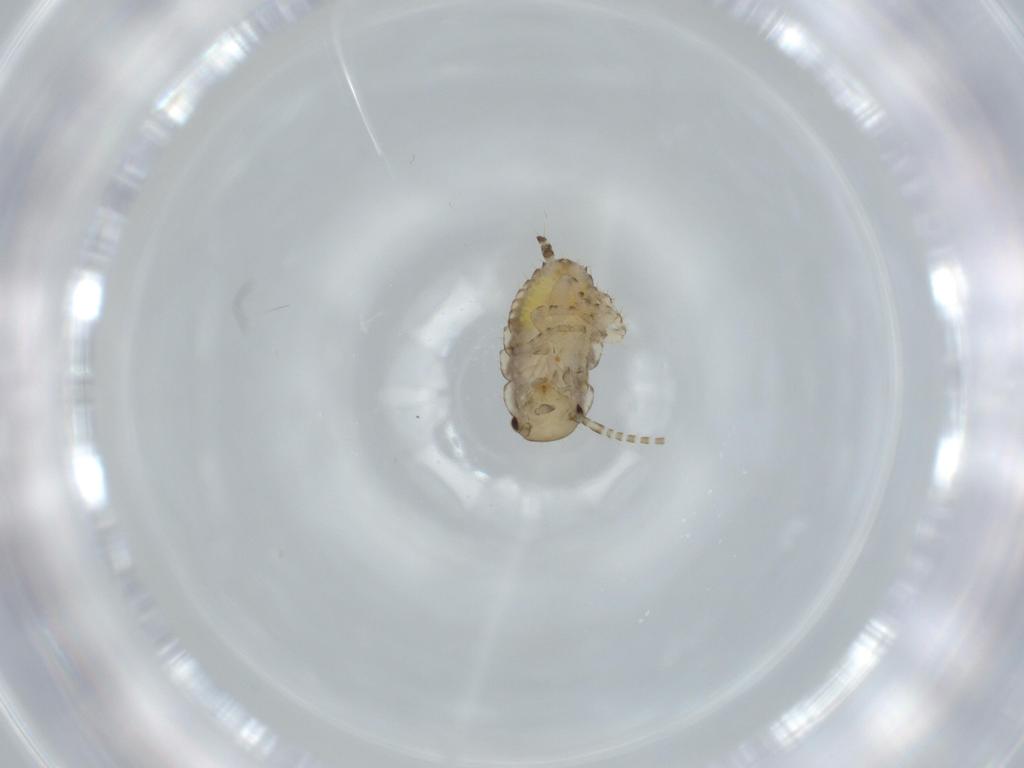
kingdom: Animalia
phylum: Arthropoda
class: Insecta
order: Blattodea
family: Ectobiidae
